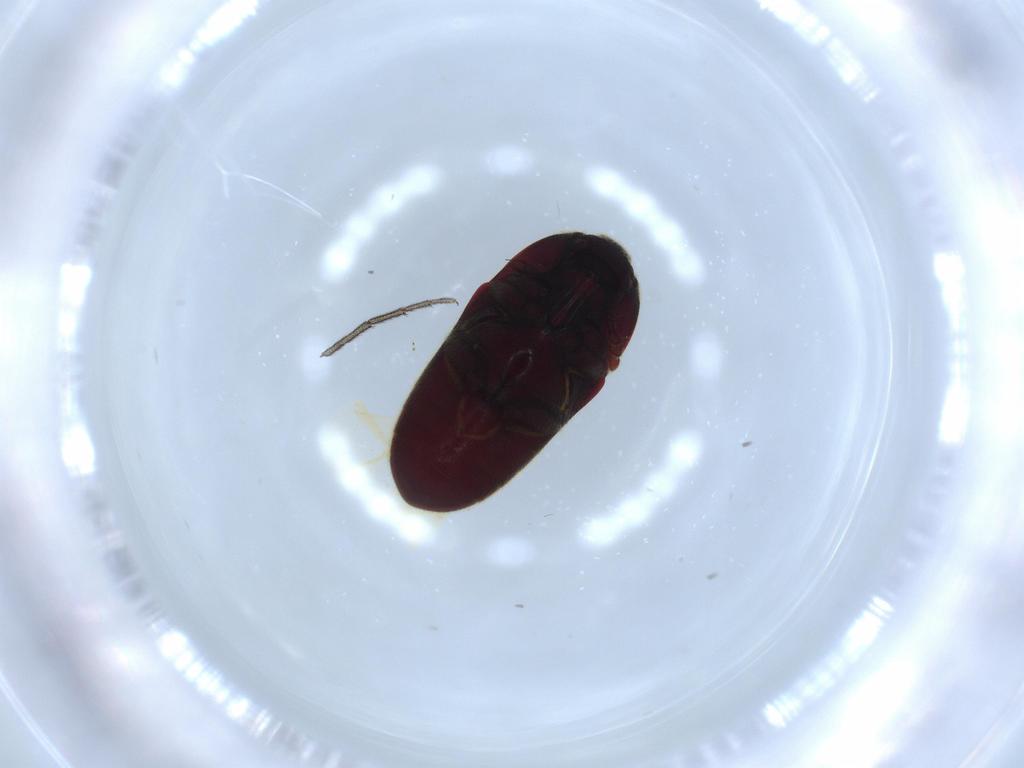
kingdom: Animalia
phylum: Arthropoda
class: Insecta
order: Coleoptera
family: Throscidae
